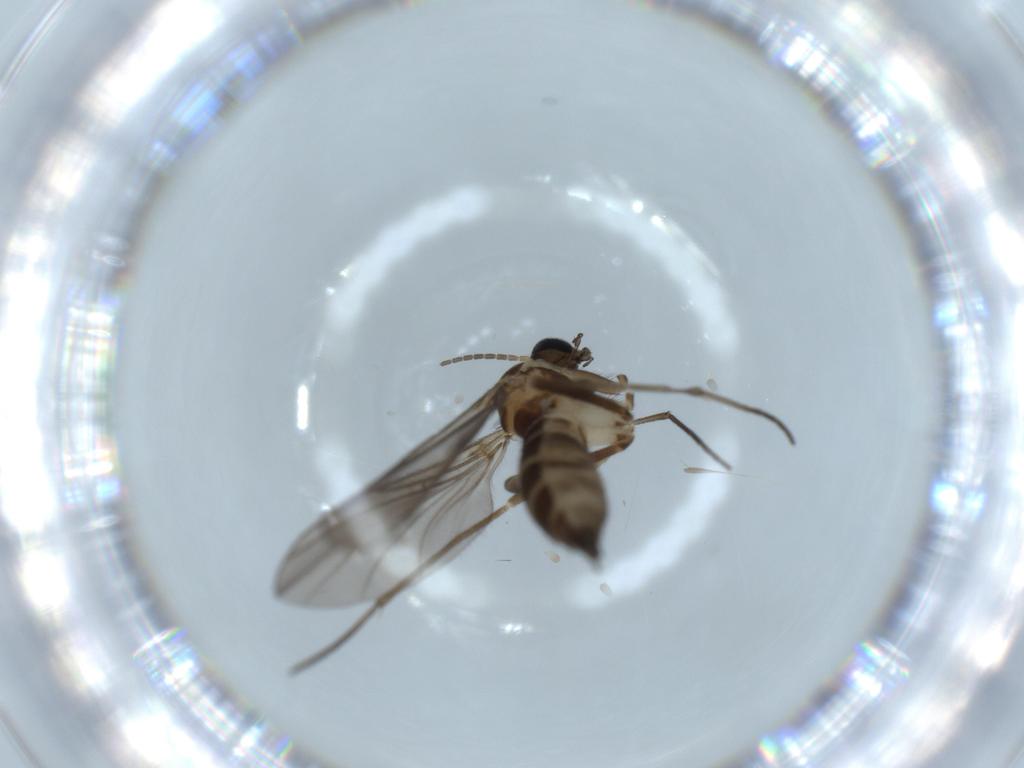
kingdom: Animalia
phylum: Arthropoda
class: Insecta
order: Diptera
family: Sciaridae
